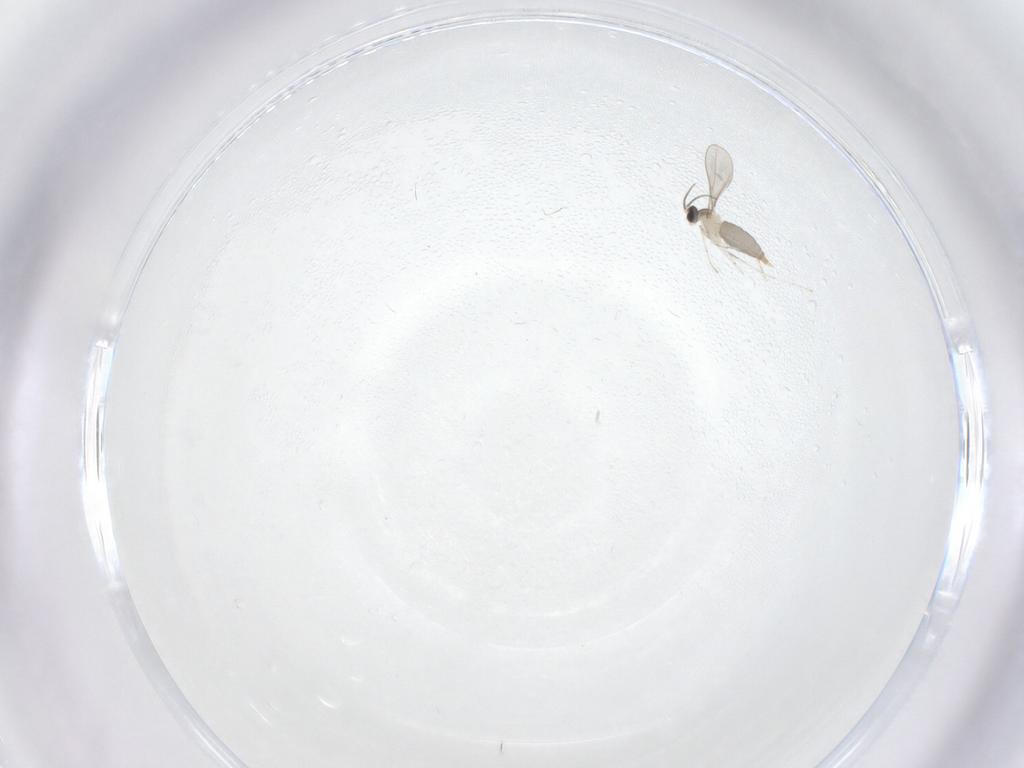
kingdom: Animalia
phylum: Arthropoda
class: Insecta
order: Diptera
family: Cecidomyiidae
